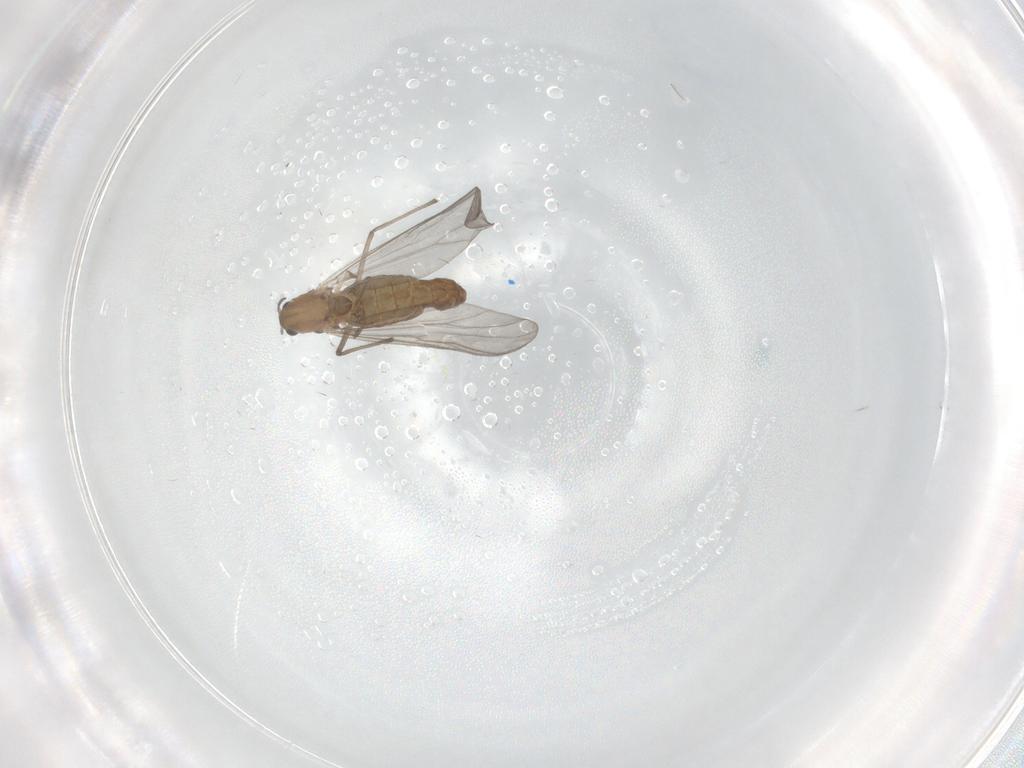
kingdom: Animalia
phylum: Arthropoda
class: Insecta
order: Diptera
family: Chironomidae
